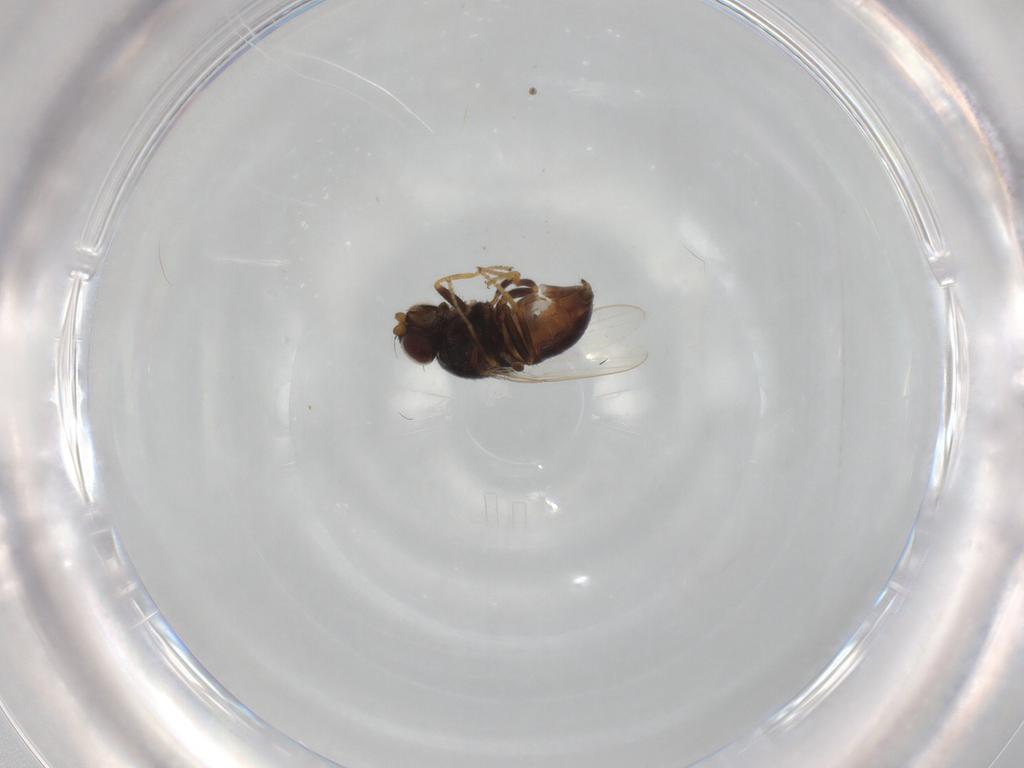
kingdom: Animalia
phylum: Arthropoda
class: Insecta
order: Diptera
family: Chloropidae
